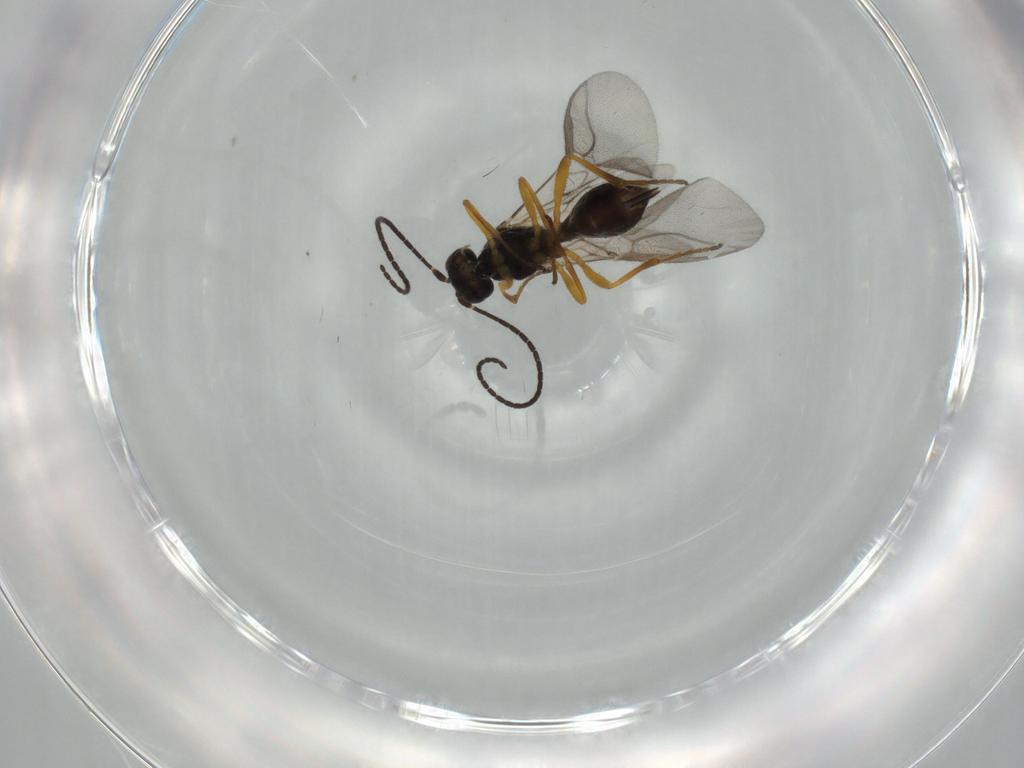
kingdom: Animalia
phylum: Arthropoda
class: Insecta
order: Hymenoptera
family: Braconidae
